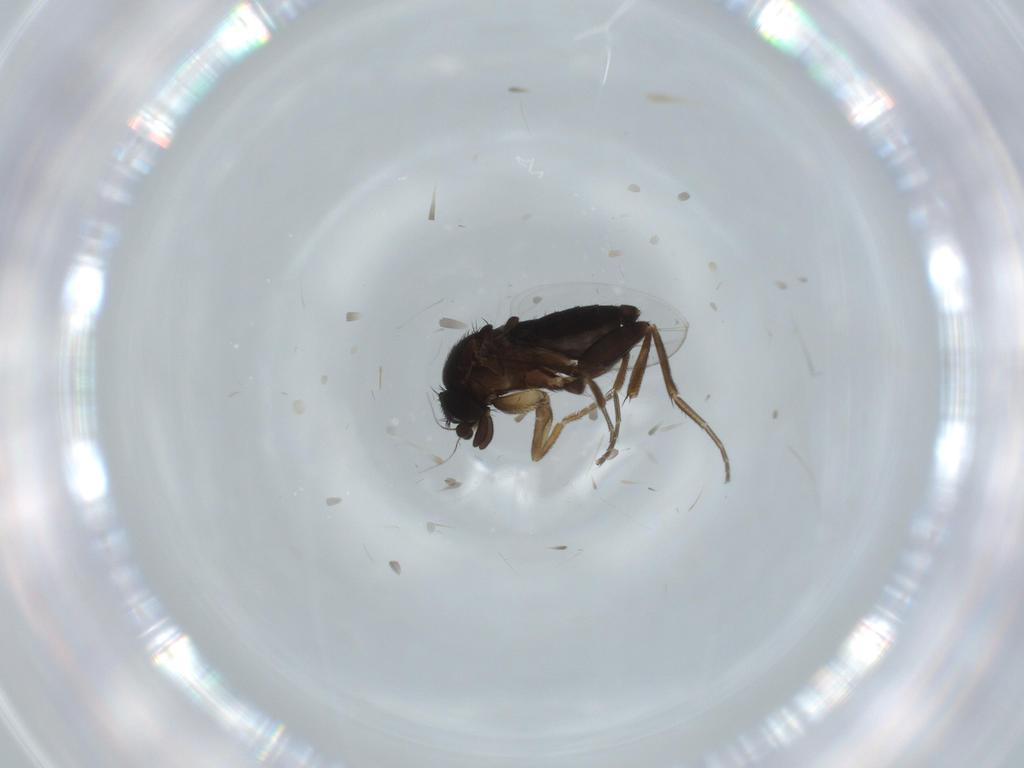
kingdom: Animalia
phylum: Arthropoda
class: Insecta
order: Diptera
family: Phoridae
